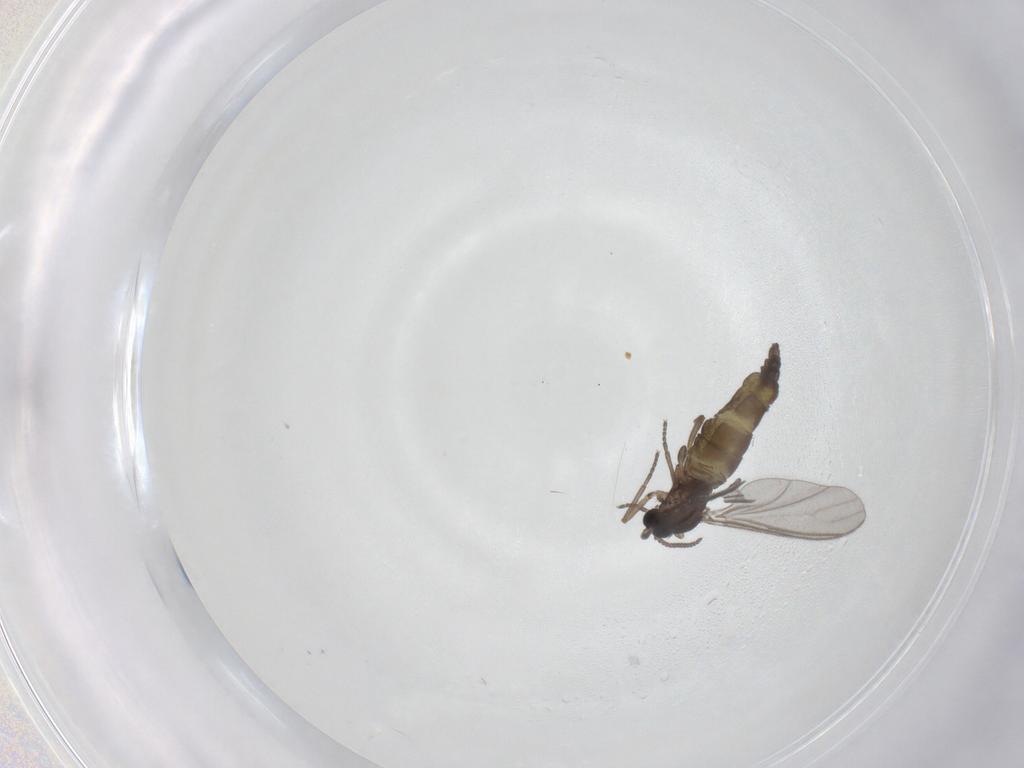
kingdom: Animalia
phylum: Arthropoda
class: Insecta
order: Diptera
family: Sciaridae
